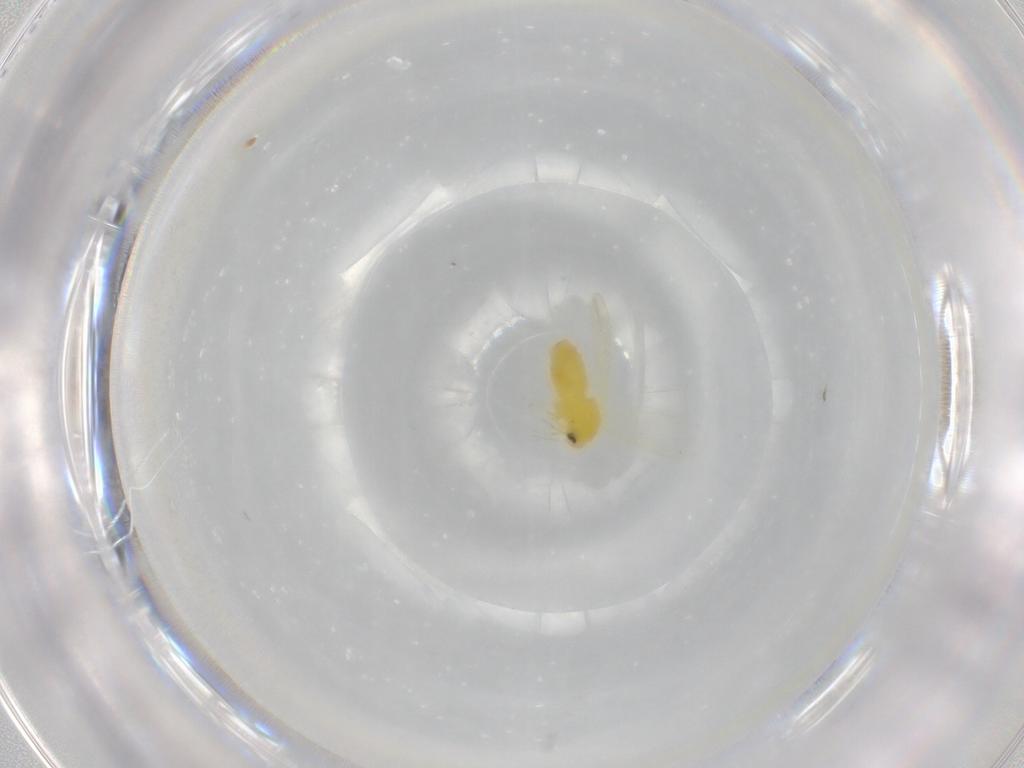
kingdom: Animalia
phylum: Arthropoda
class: Insecta
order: Hemiptera
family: Aleyrodidae
